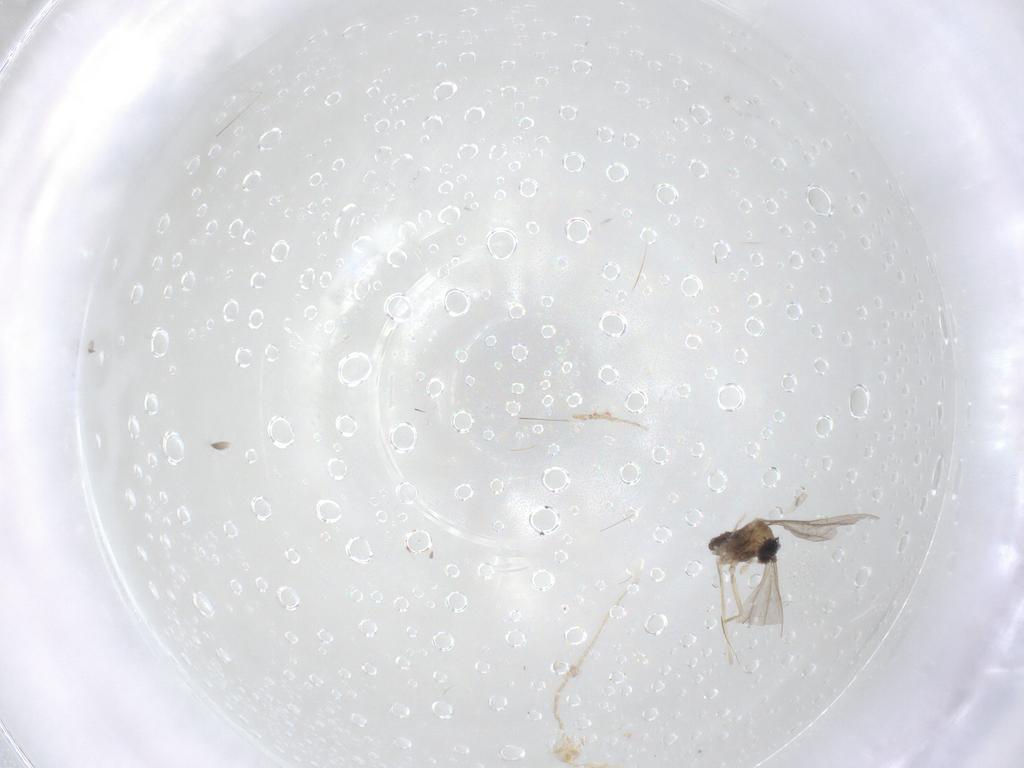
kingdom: Animalia
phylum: Arthropoda
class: Insecta
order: Diptera
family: Cecidomyiidae
